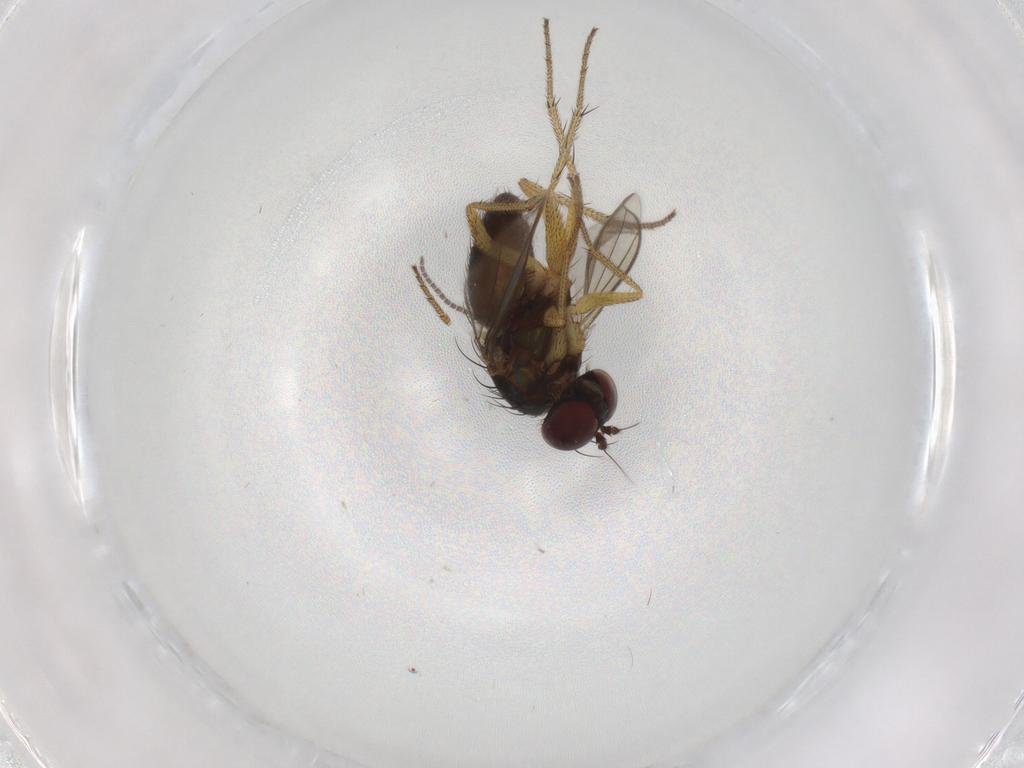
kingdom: Animalia
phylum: Arthropoda
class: Insecta
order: Diptera
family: Sciaridae
